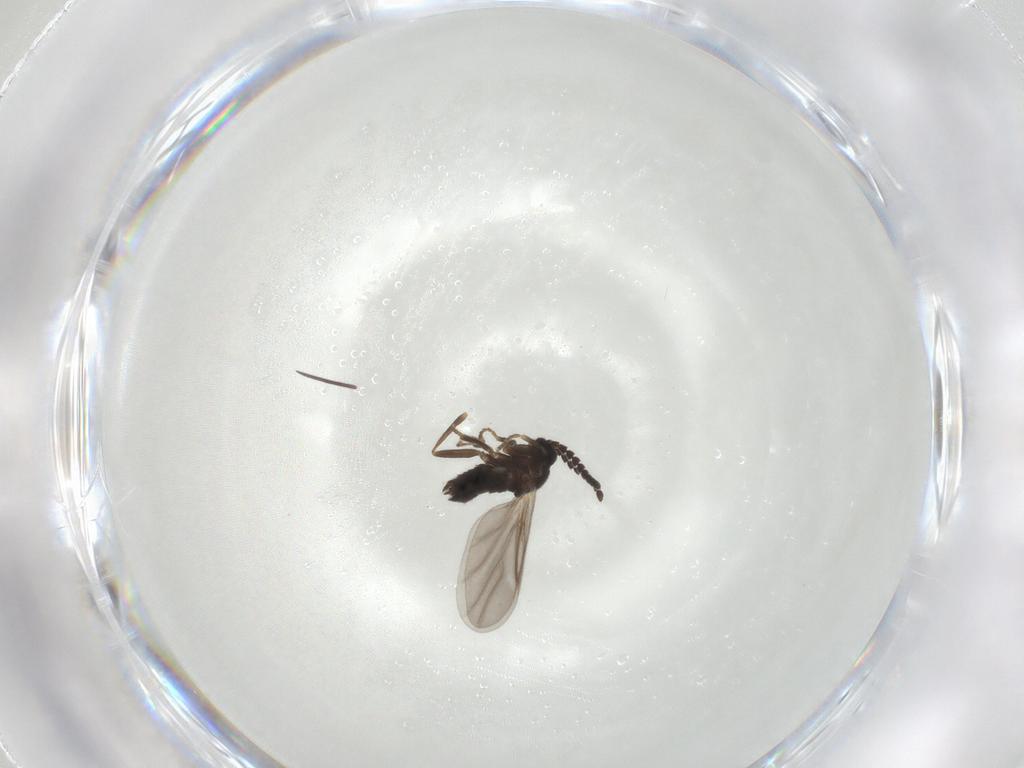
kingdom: Animalia
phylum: Arthropoda
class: Insecta
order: Diptera
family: Scatopsidae
